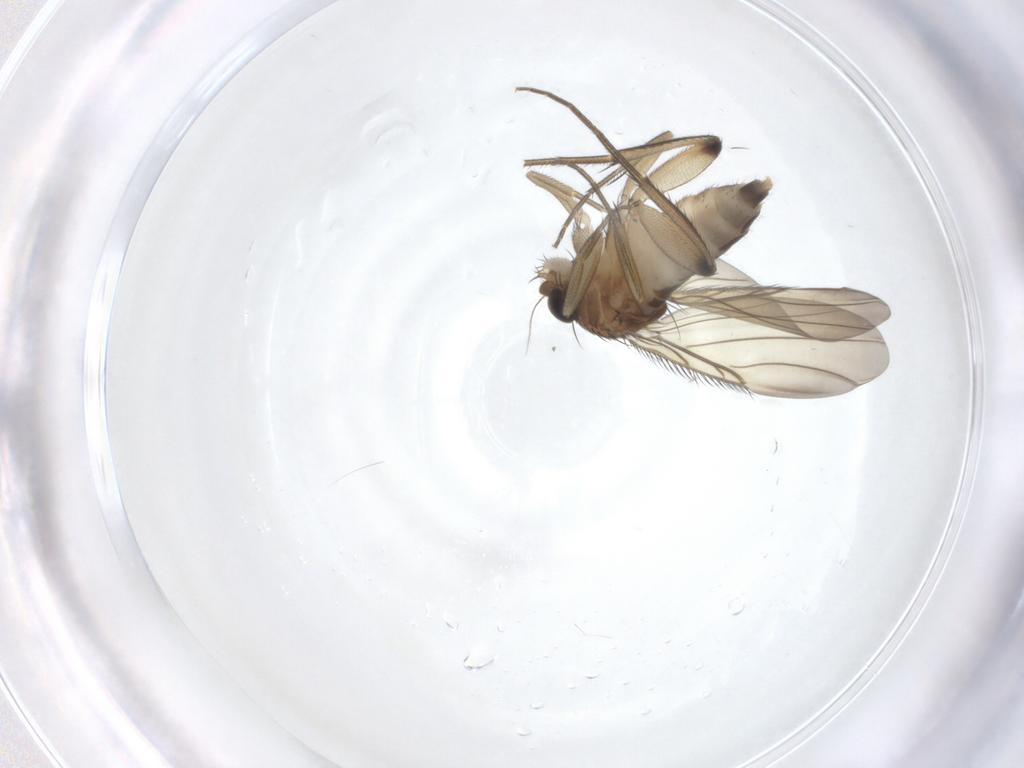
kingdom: Animalia
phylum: Arthropoda
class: Insecta
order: Diptera
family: Phoridae
